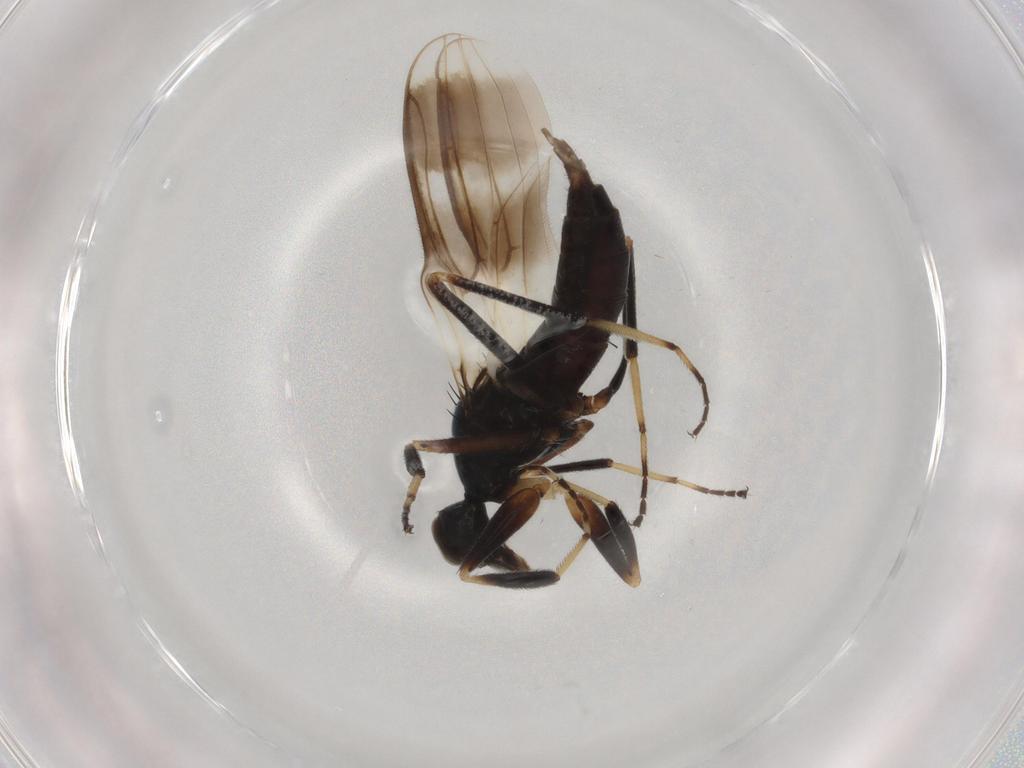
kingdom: Animalia
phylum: Arthropoda
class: Insecta
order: Diptera
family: Hybotidae
